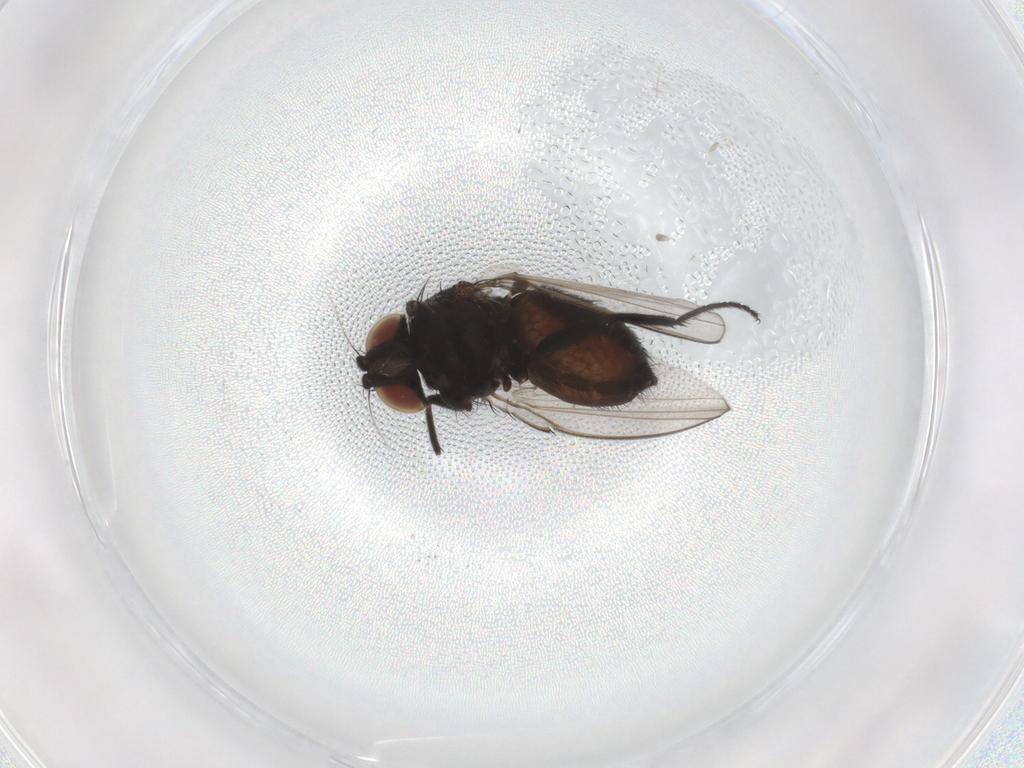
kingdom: Animalia
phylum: Arthropoda
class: Insecta
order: Diptera
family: Milichiidae
